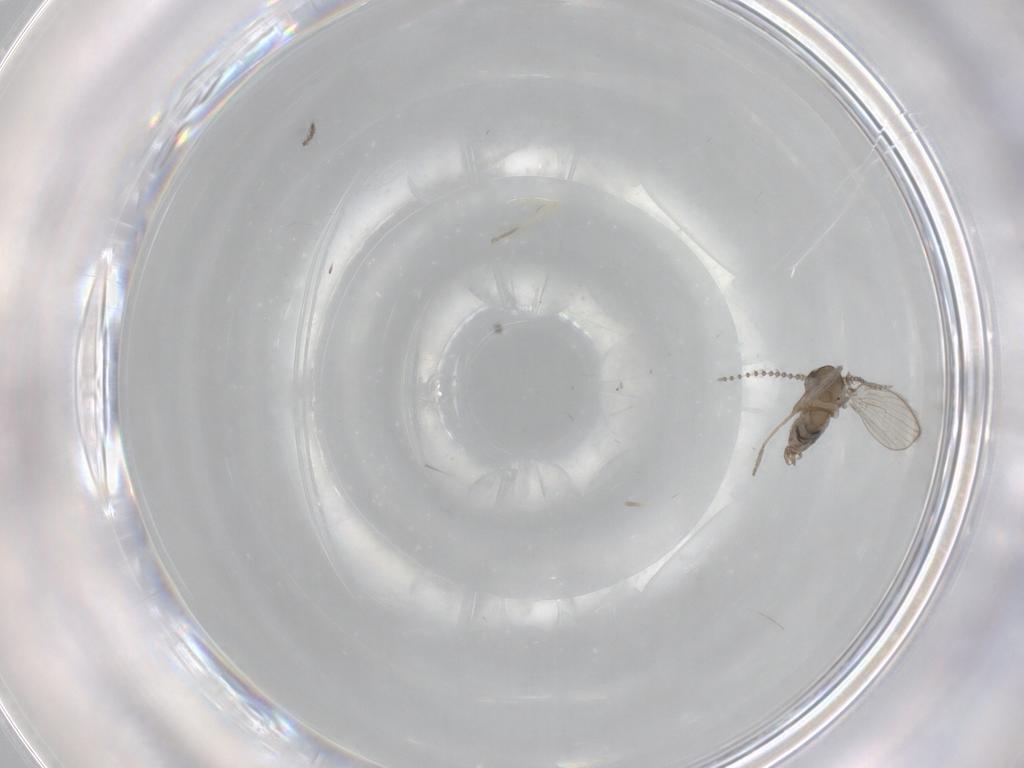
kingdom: Animalia
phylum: Arthropoda
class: Insecta
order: Diptera
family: Psychodidae
